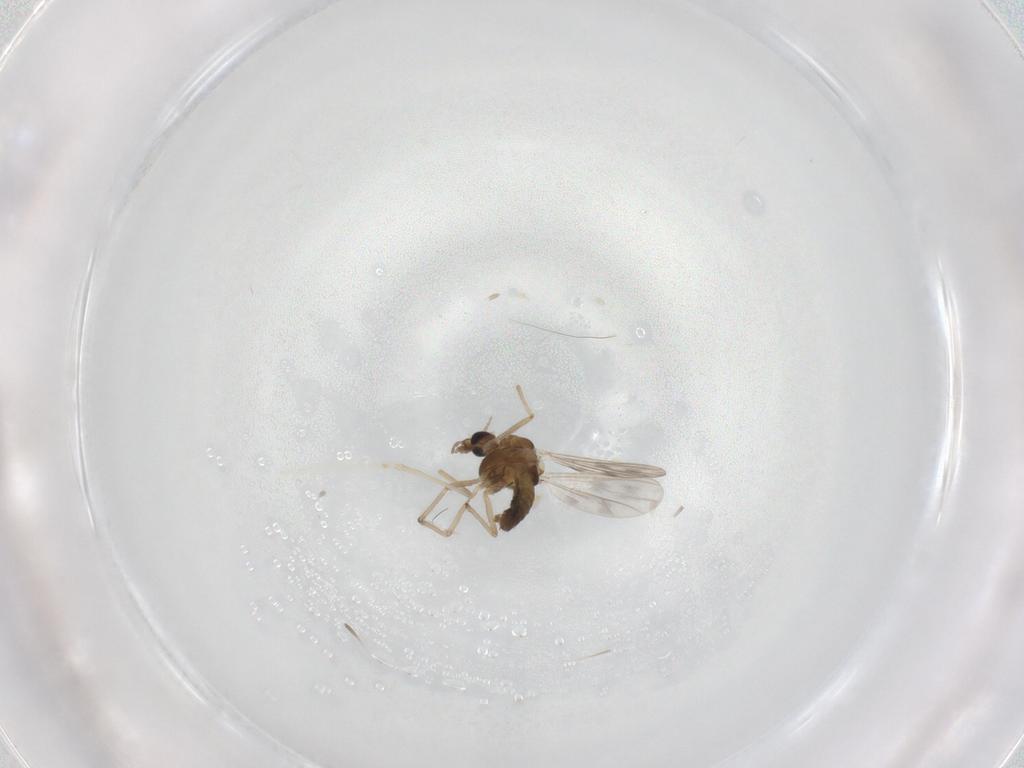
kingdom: Animalia
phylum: Arthropoda
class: Insecta
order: Diptera
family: Cecidomyiidae
